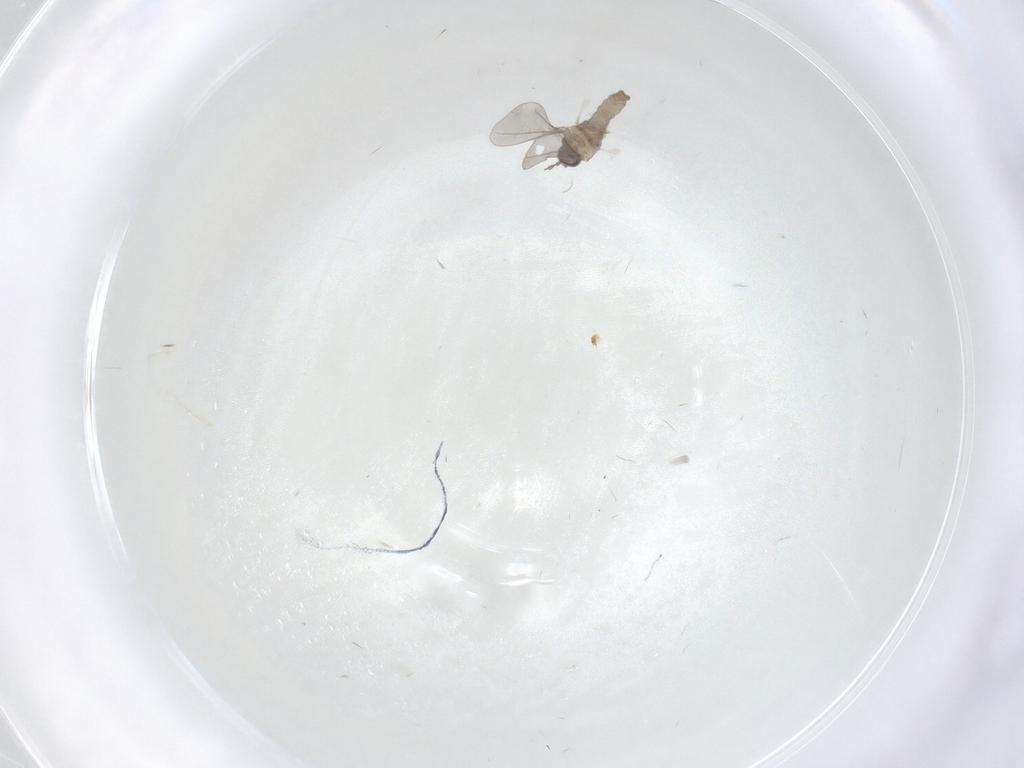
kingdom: Animalia
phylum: Arthropoda
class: Insecta
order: Diptera
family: Limoniidae
